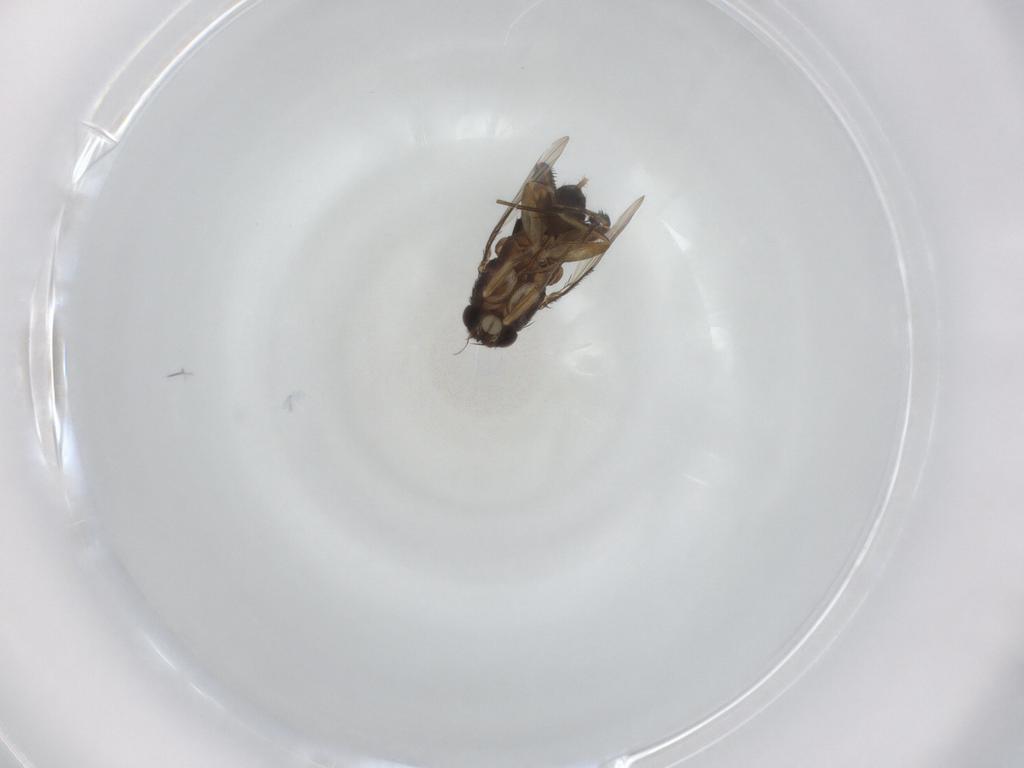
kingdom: Animalia
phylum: Arthropoda
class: Insecta
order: Diptera
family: Phoridae
